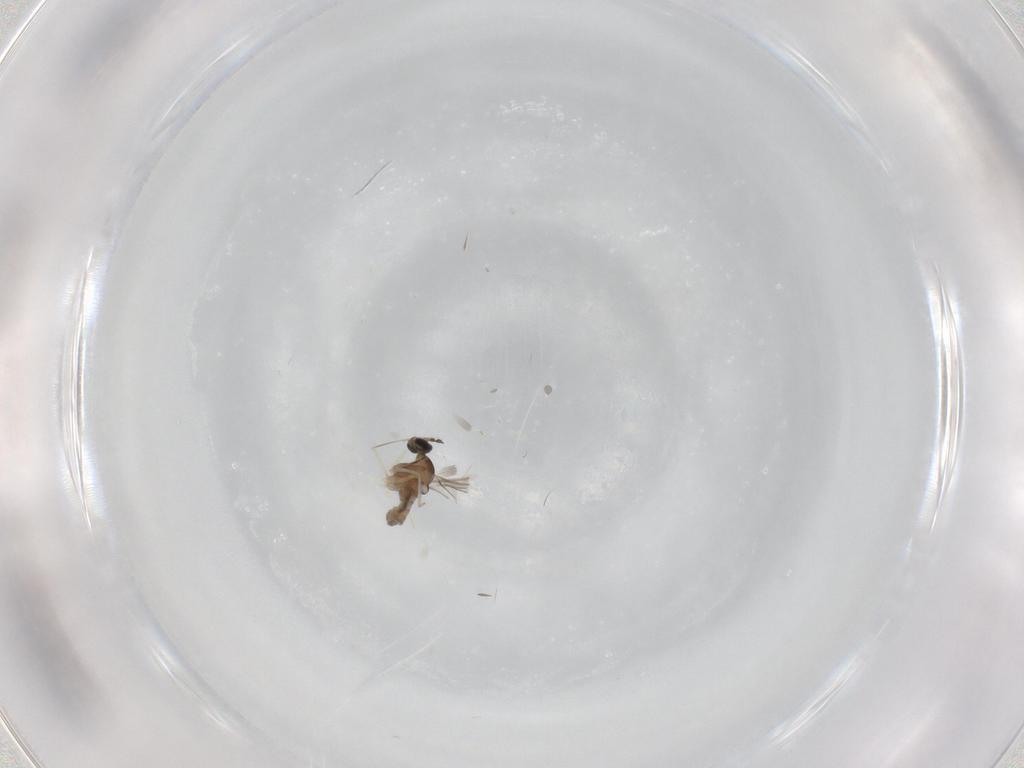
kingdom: Animalia
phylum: Arthropoda
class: Insecta
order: Diptera
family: Cecidomyiidae
